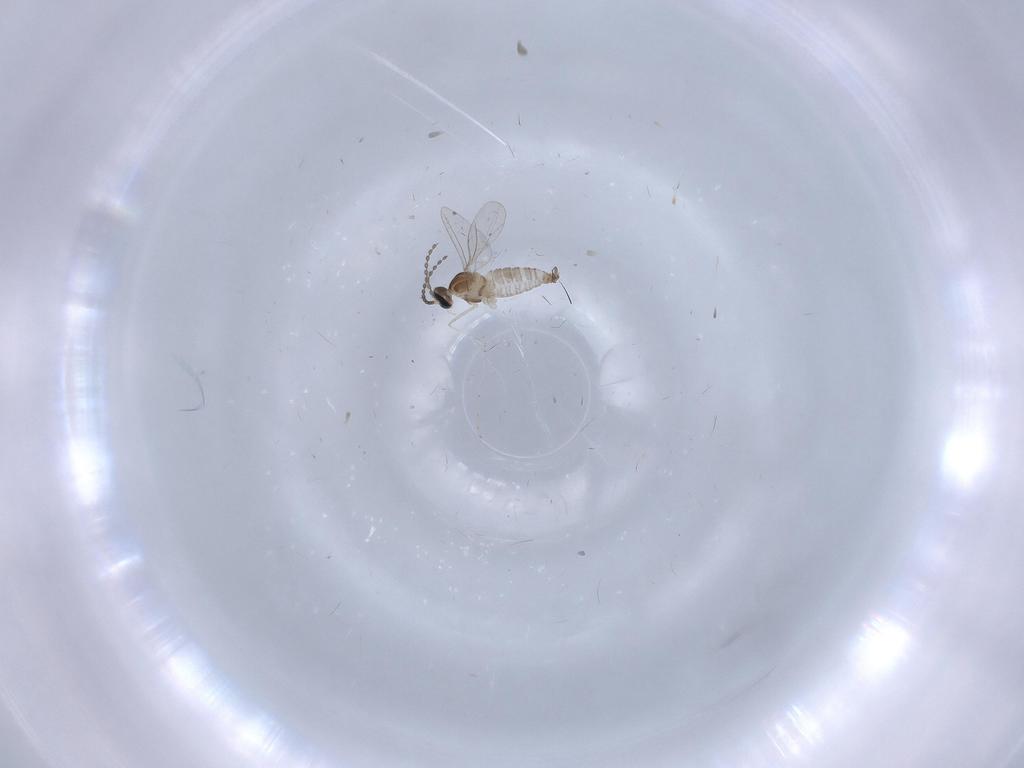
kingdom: Animalia
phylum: Arthropoda
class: Insecta
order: Diptera
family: Cecidomyiidae
